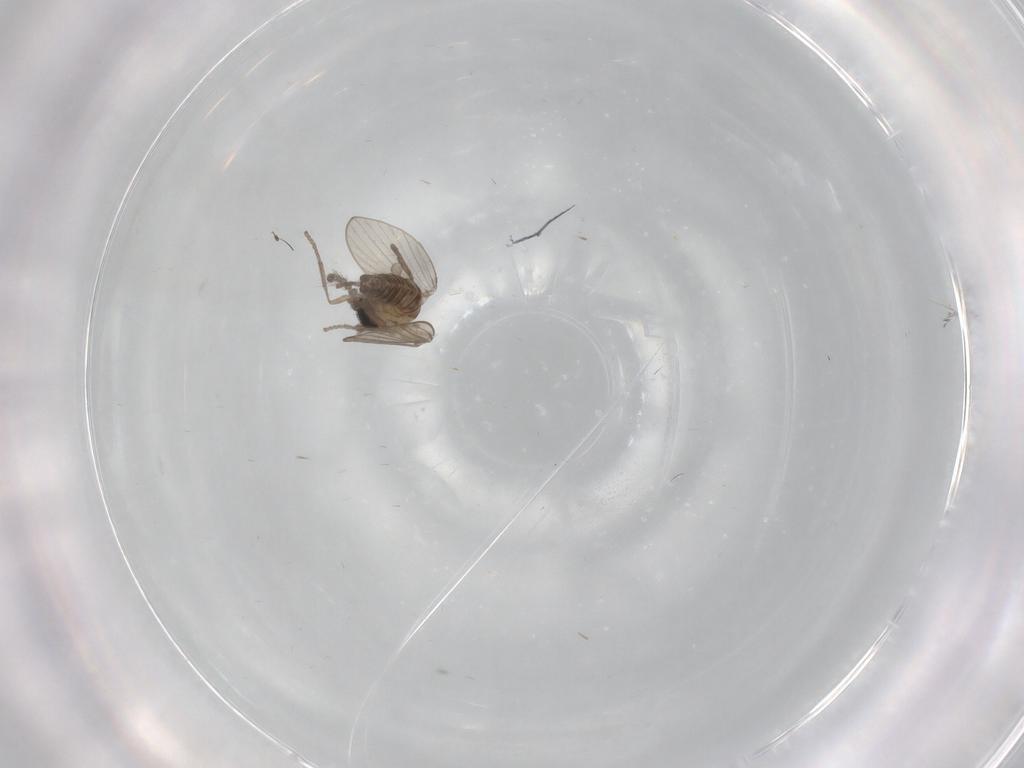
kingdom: Animalia
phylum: Arthropoda
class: Insecta
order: Diptera
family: Psychodidae
